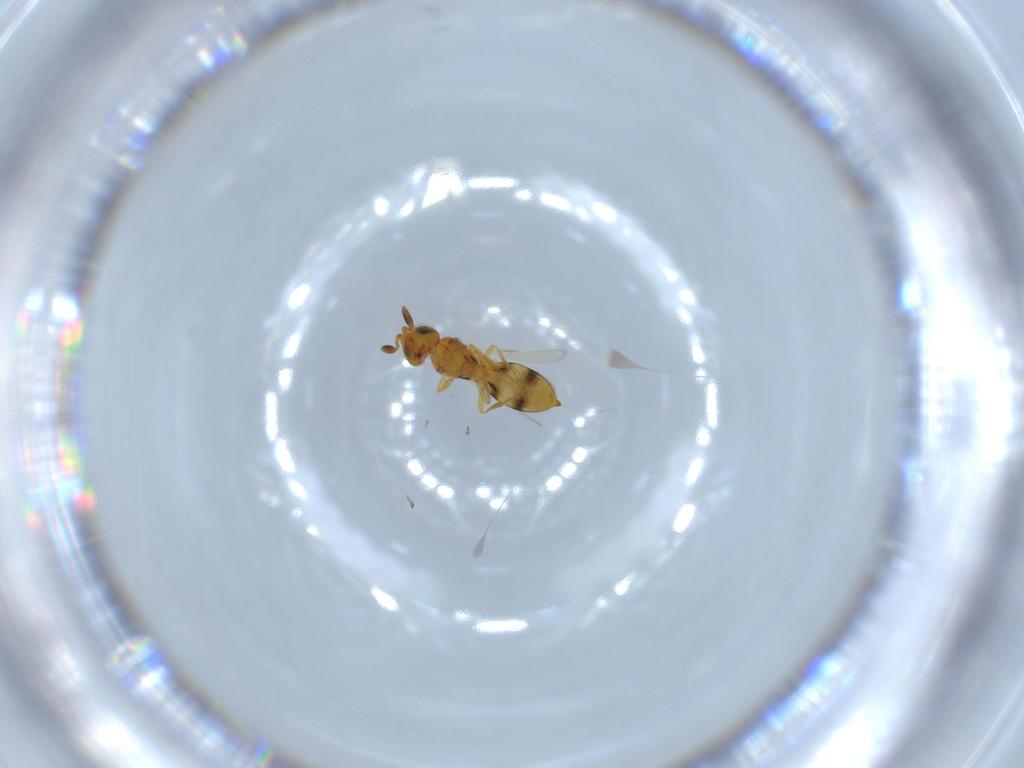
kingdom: Animalia
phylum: Arthropoda
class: Insecta
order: Hymenoptera
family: Scelionidae
